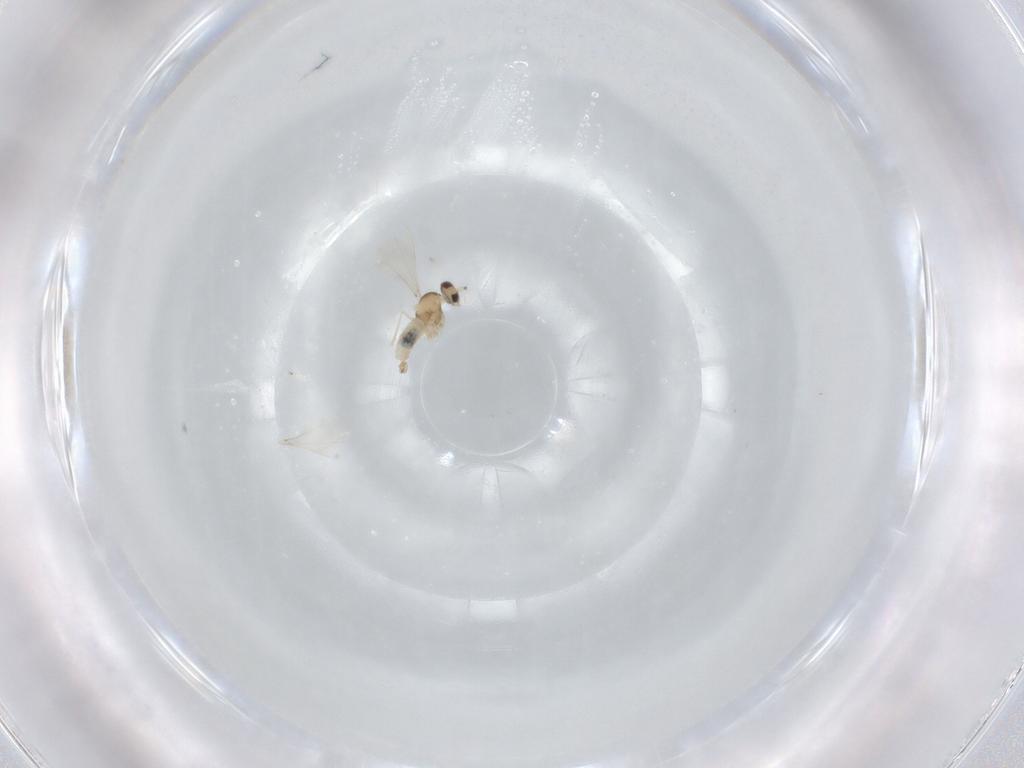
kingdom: Animalia
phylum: Arthropoda
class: Insecta
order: Diptera
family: Cecidomyiidae
